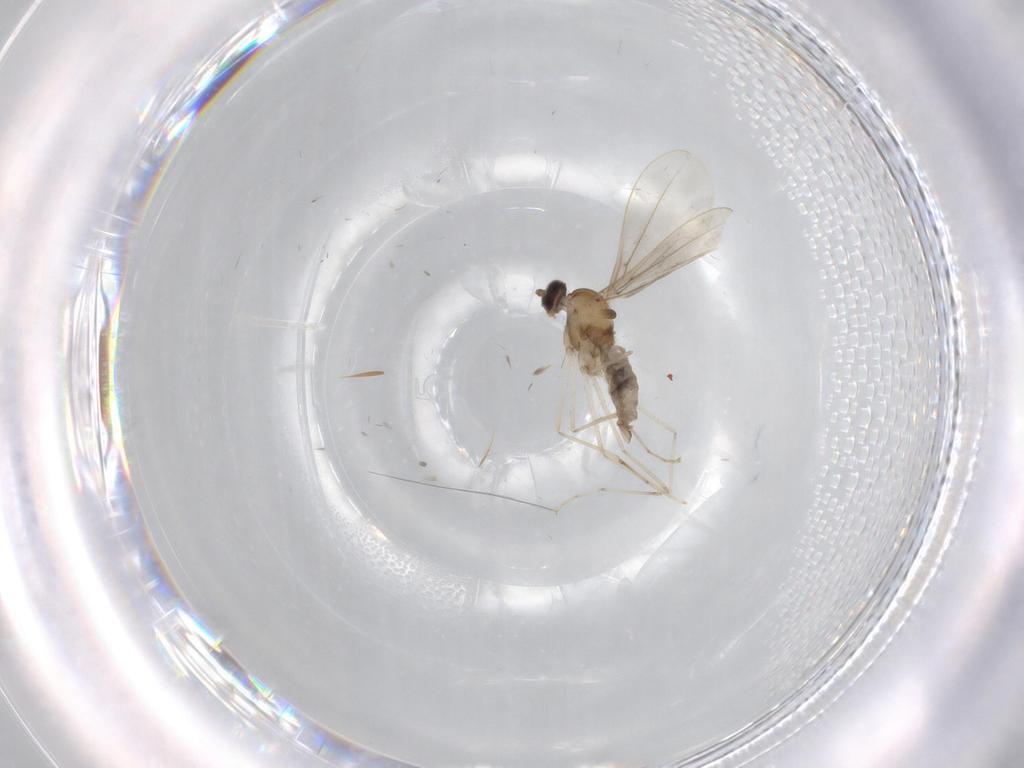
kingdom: Animalia
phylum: Arthropoda
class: Insecta
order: Diptera
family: Cecidomyiidae
